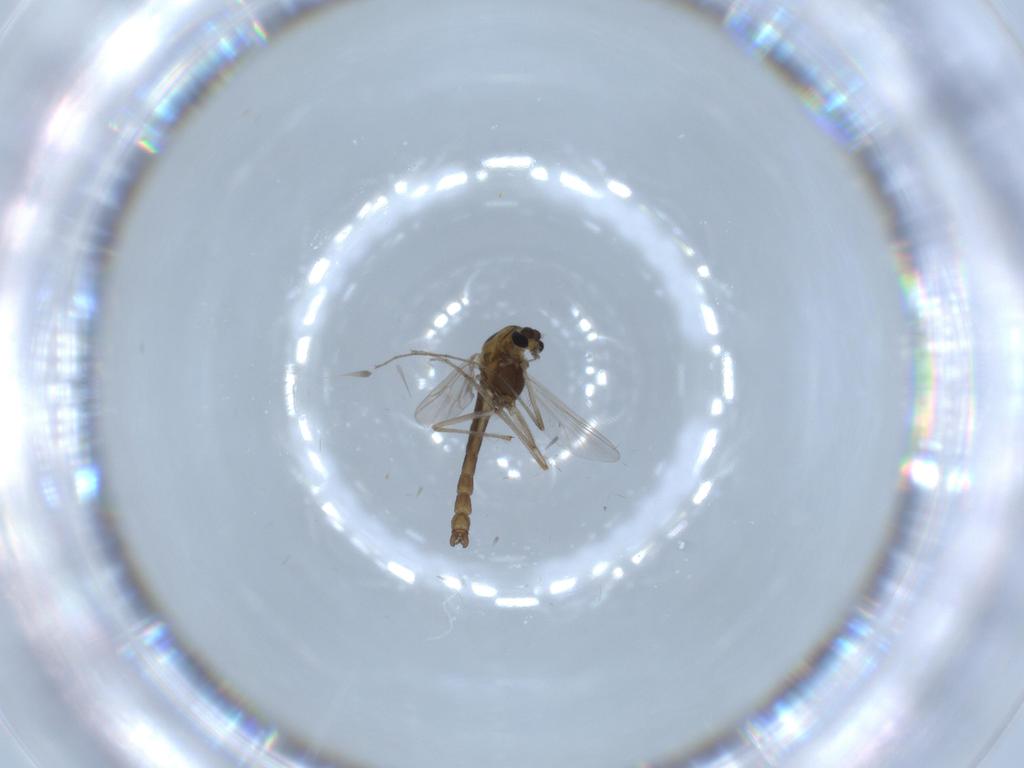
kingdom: Animalia
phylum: Arthropoda
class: Insecta
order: Diptera
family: Chironomidae
